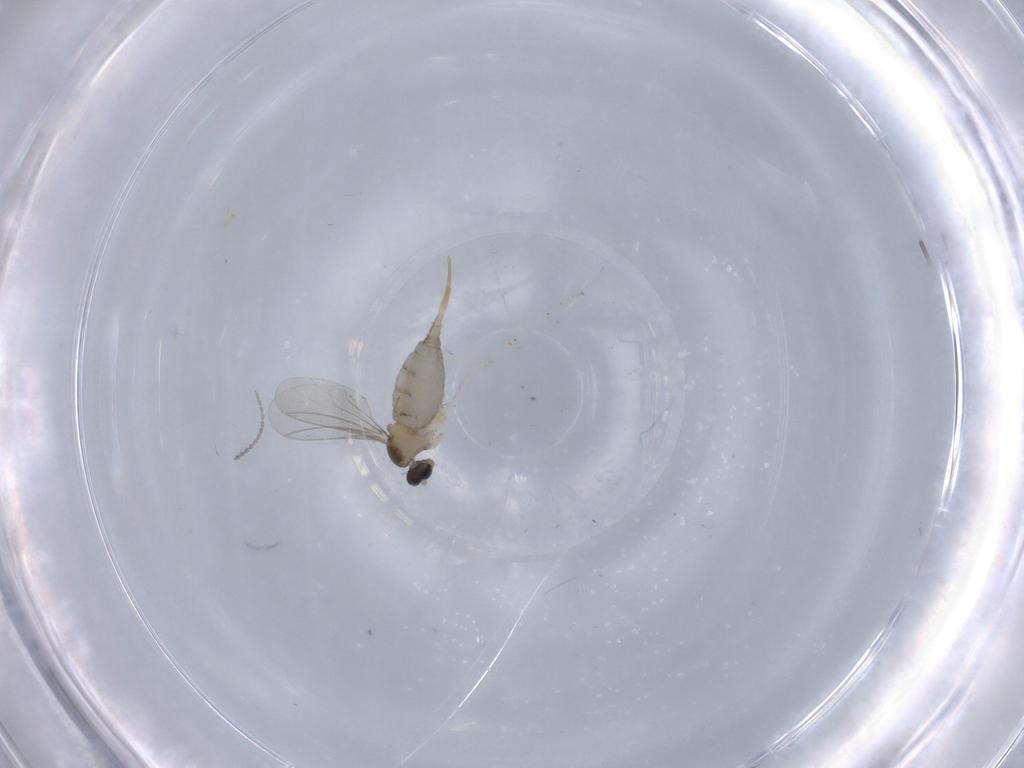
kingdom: Animalia
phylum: Arthropoda
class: Insecta
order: Diptera
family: Cecidomyiidae
